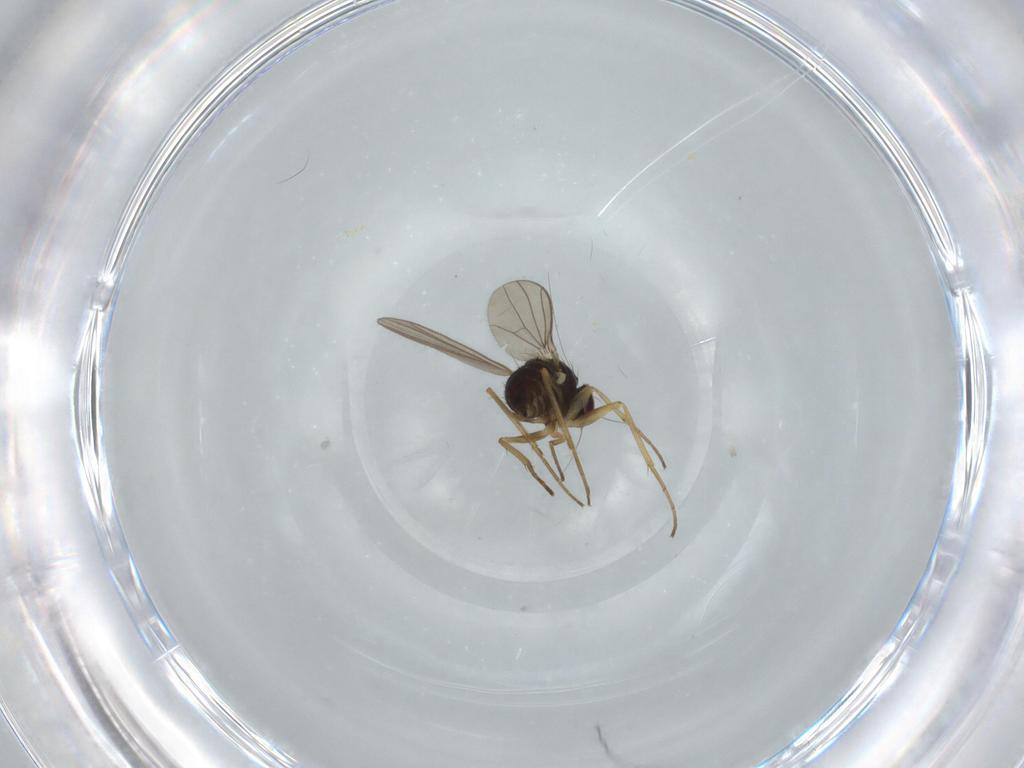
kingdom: Animalia
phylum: Arthropoda
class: Insecta
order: Diptera
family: Phoridae
